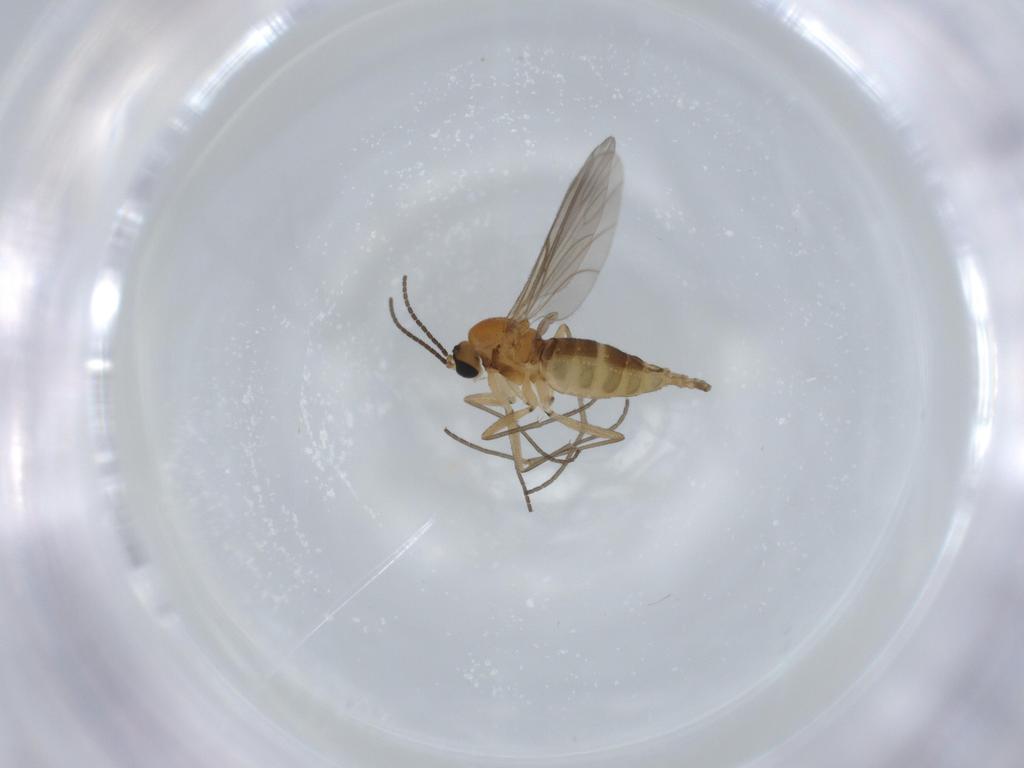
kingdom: Animalia
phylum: Arthropoda
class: Insecta
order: Diptera
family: Sciaridae
